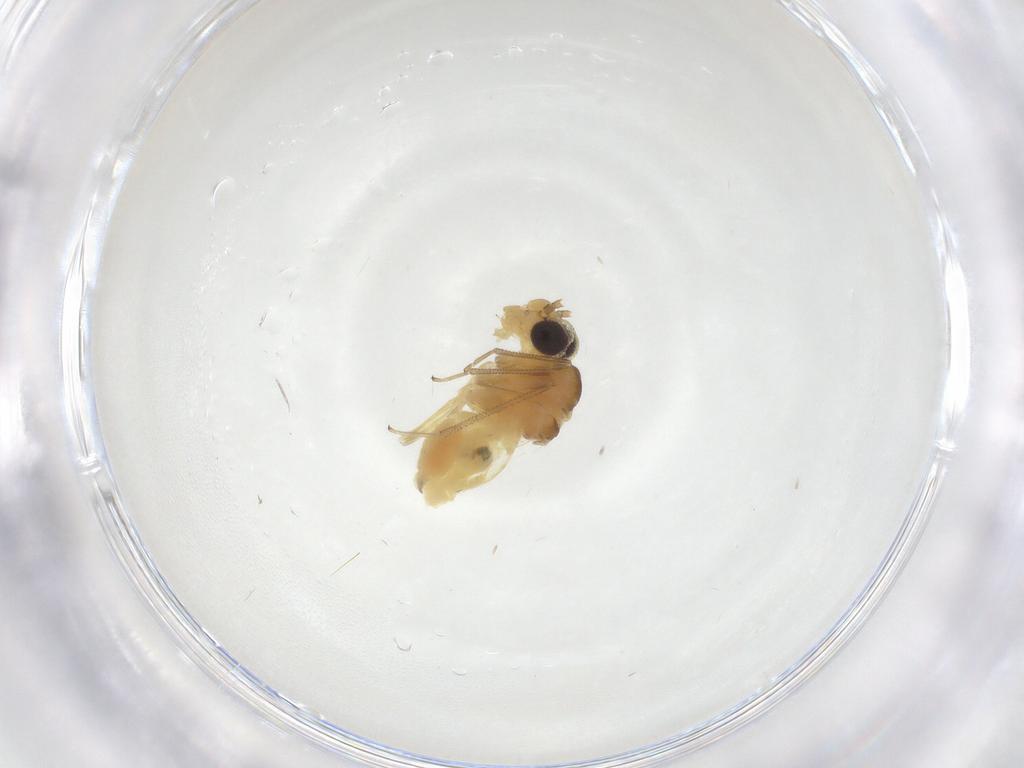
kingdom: Animalia
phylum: Arthropoda
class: Insecta
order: Psocodea
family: Caeciliusidae
